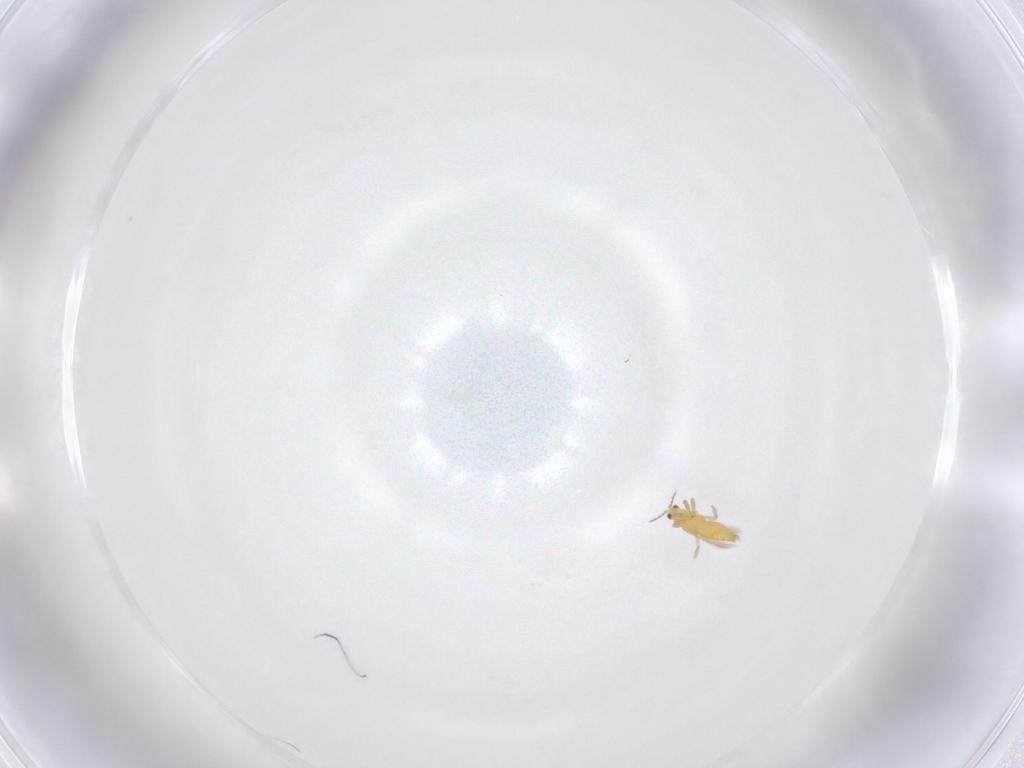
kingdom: Animalia
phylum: Arthropoda
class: Insecta
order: Thysanoptera
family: Thripidae
